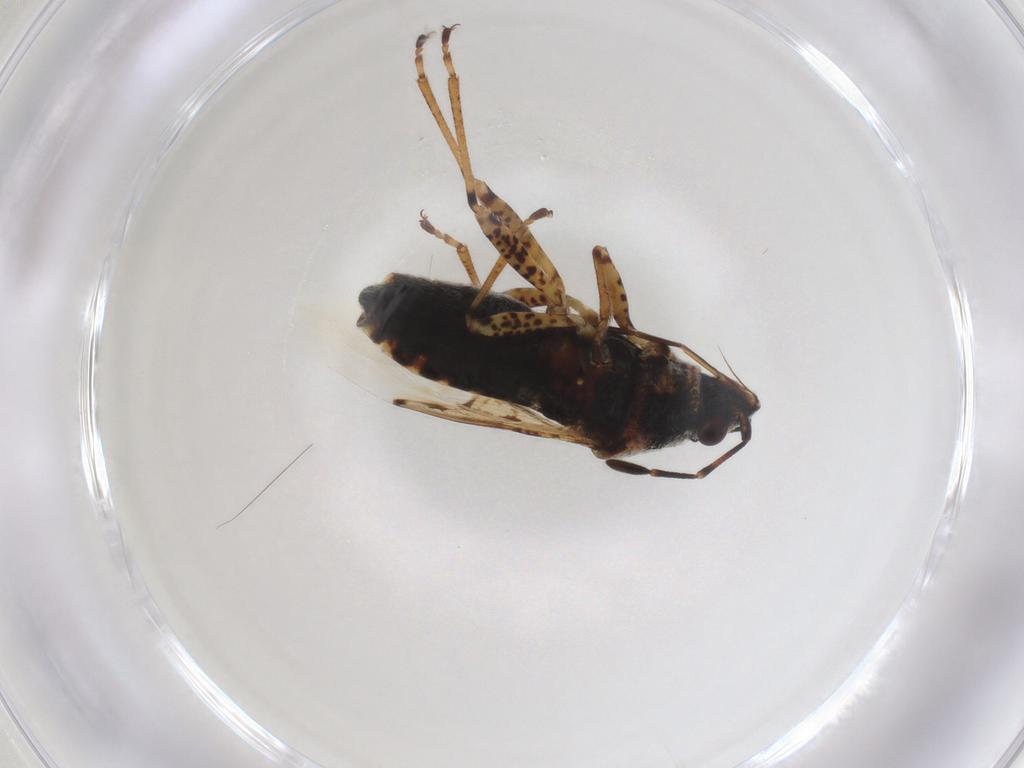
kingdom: Animalia
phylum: Arthropoda
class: Insecta
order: Hemiptera
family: Lygaeidae
